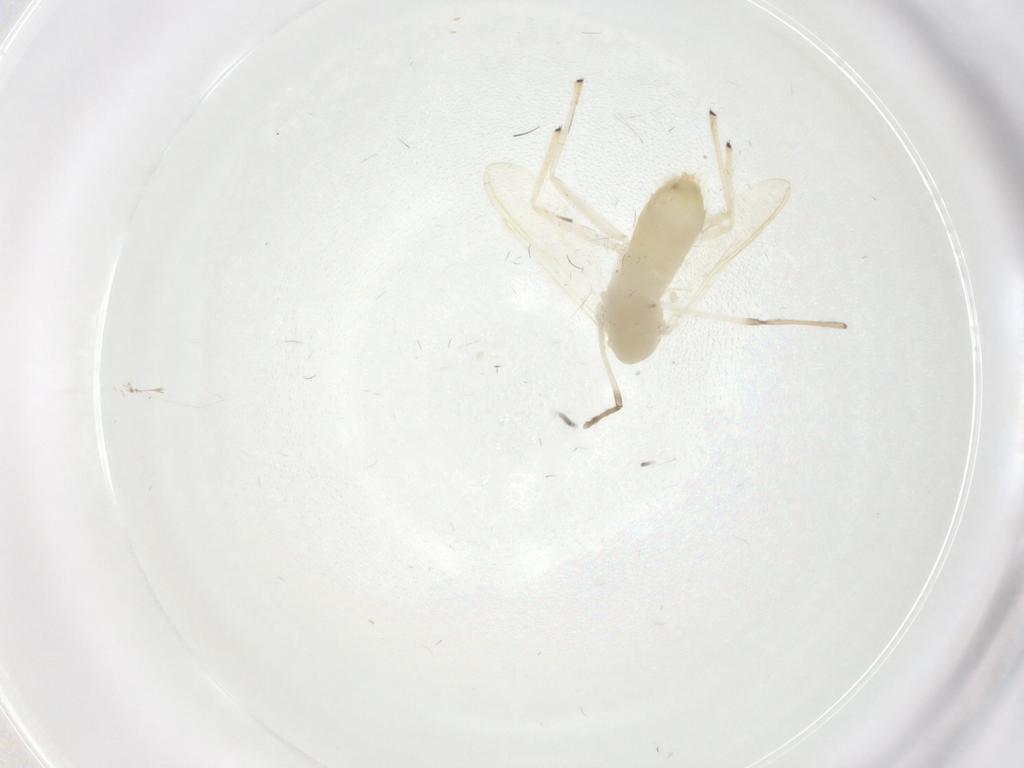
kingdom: Animalia
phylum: Arthropoda
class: Insecta
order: Diptera
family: Chironomidae
